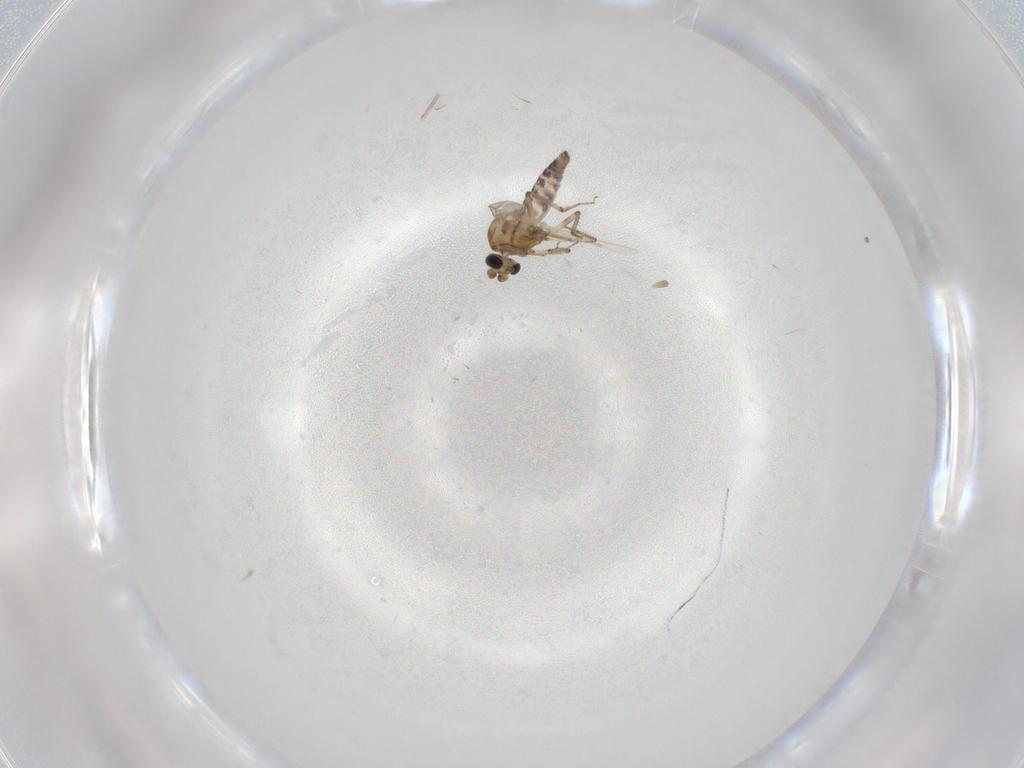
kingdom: Animalia
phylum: Arthropoda
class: Insecta
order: Diptera
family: Ceratopogonidae
